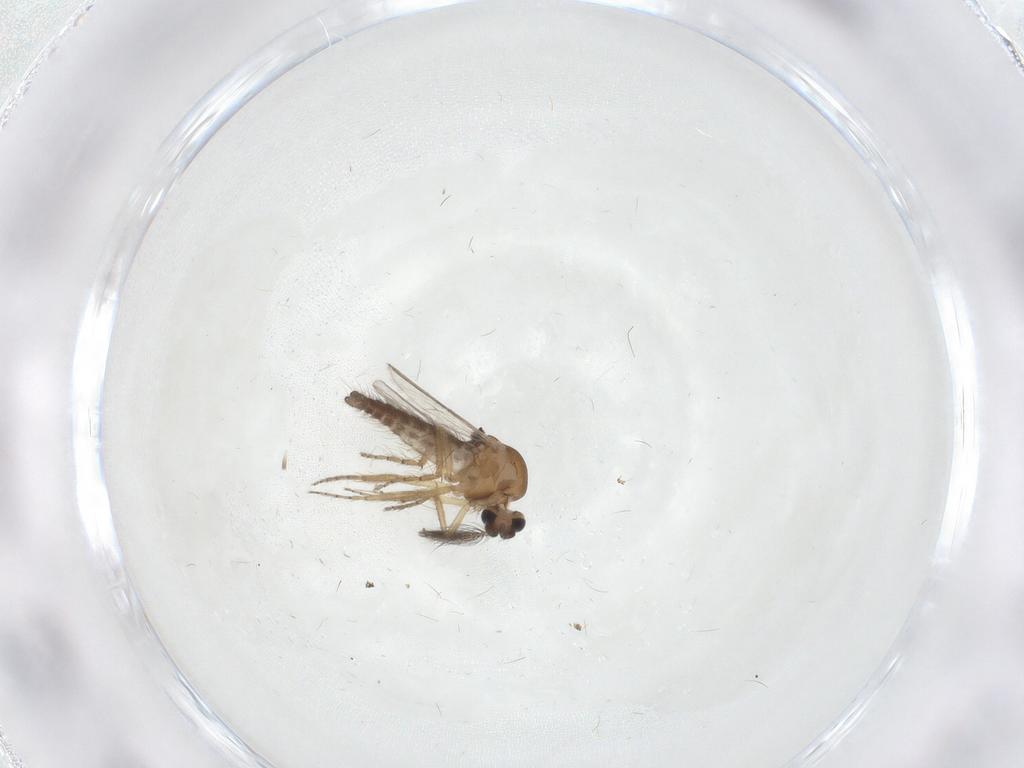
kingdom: Animalia
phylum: Arthropoda
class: Insecta
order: Diptera
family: Ceratopogonidae
